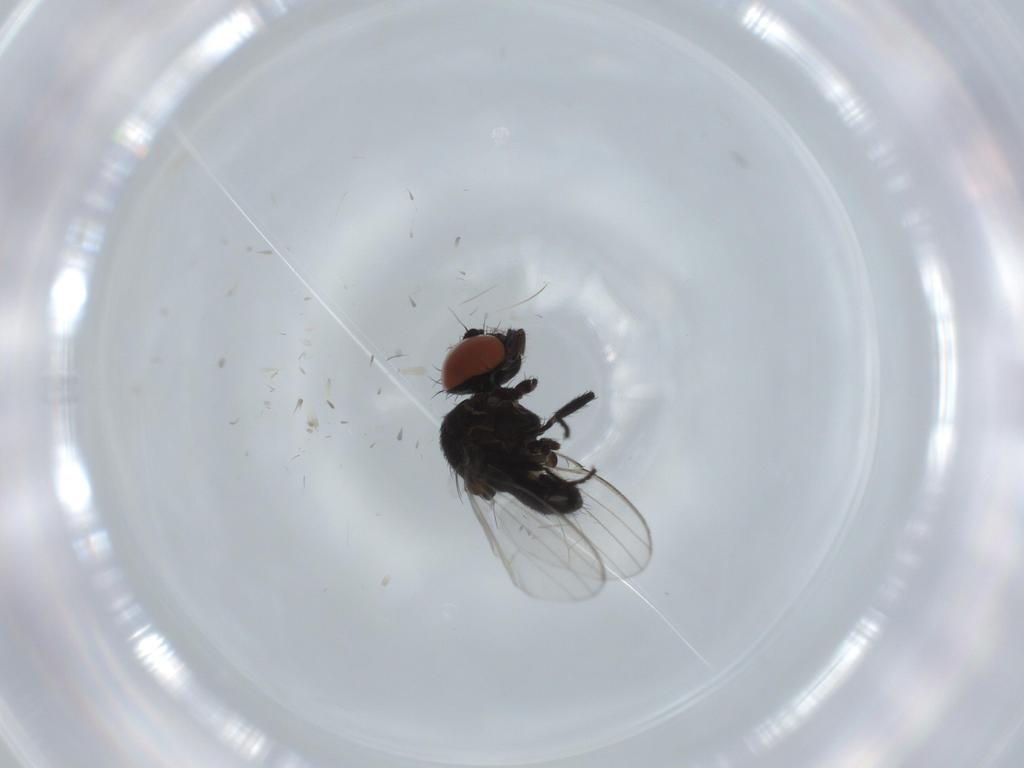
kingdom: Animalia
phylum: Arthropoda
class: Insecta
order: Diptera
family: Milichiidae
